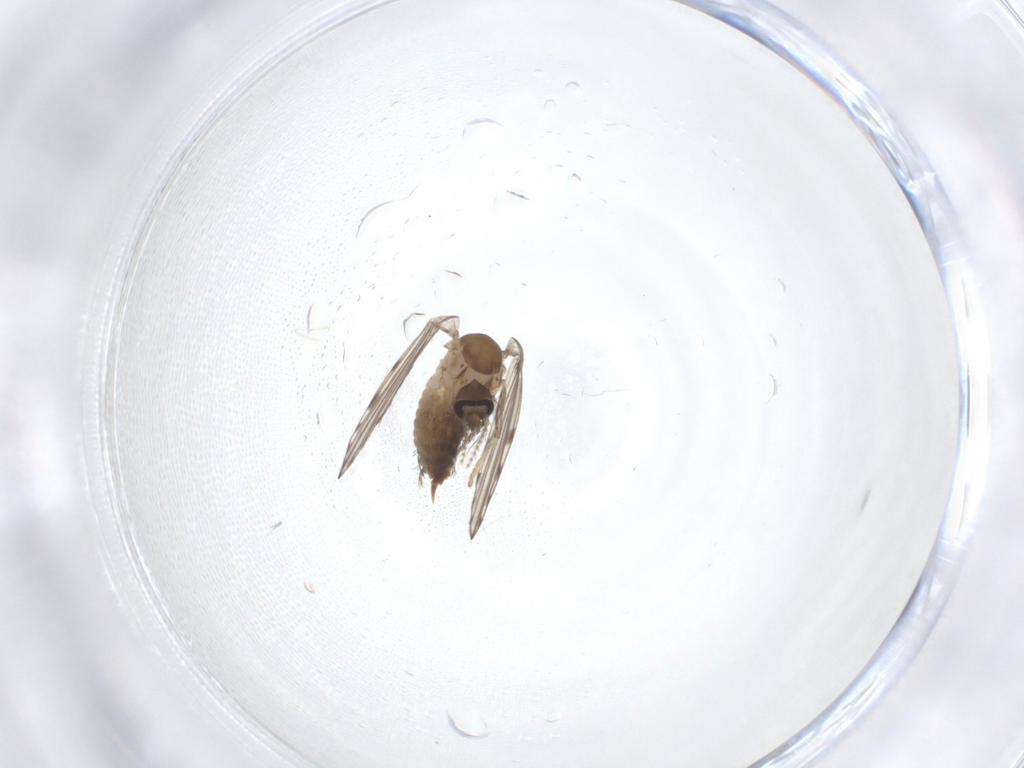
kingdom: Animalia
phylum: Arthropoda
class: Insecta
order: Diptera
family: Psychodidae
